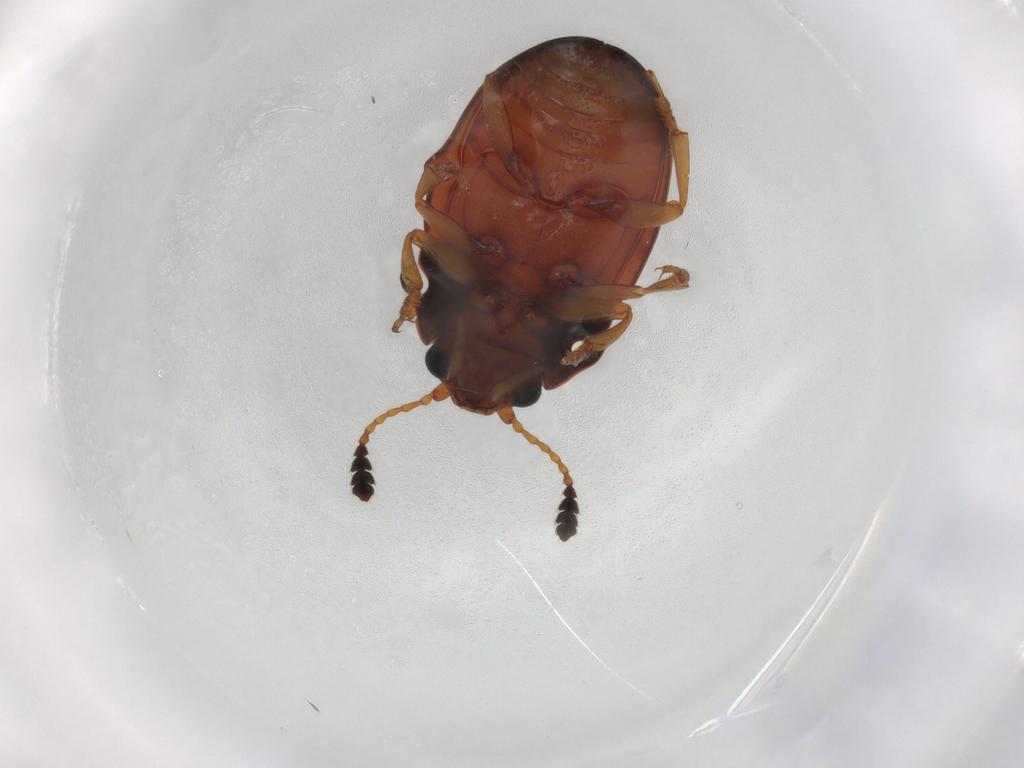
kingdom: Animalia
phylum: Arthropoda
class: Insecta
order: Coleoptera
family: Erotylidae
